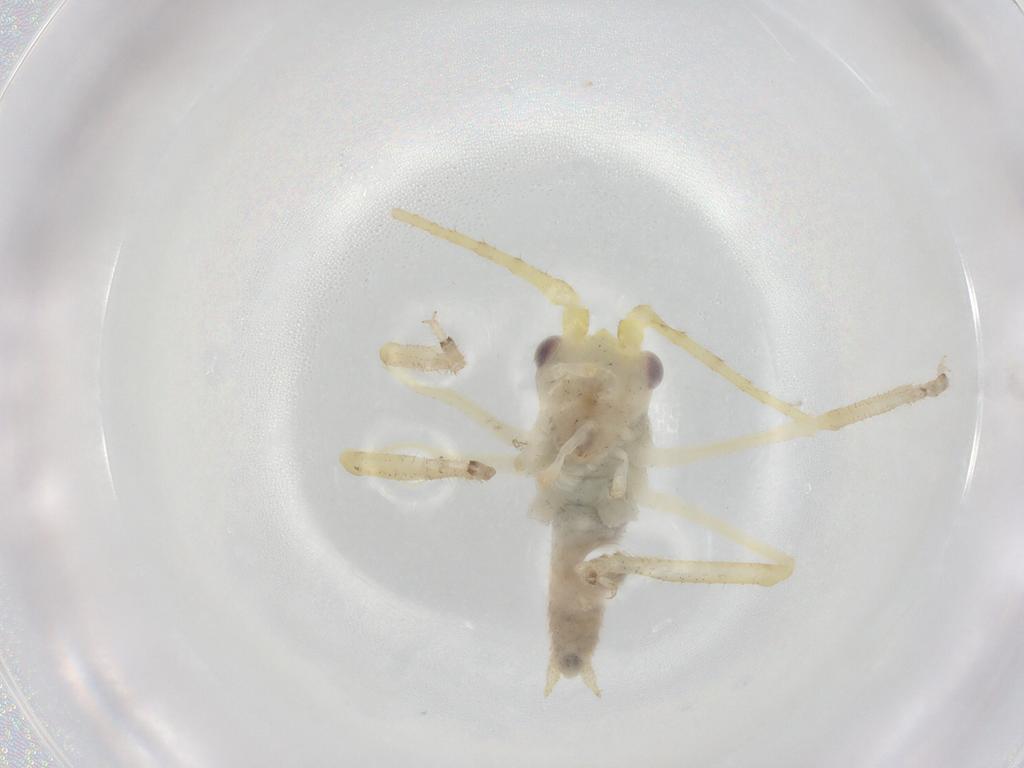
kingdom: Animalia
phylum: Arthropoda
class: Insecta
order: Orthoptera
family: Tettigoniidae
